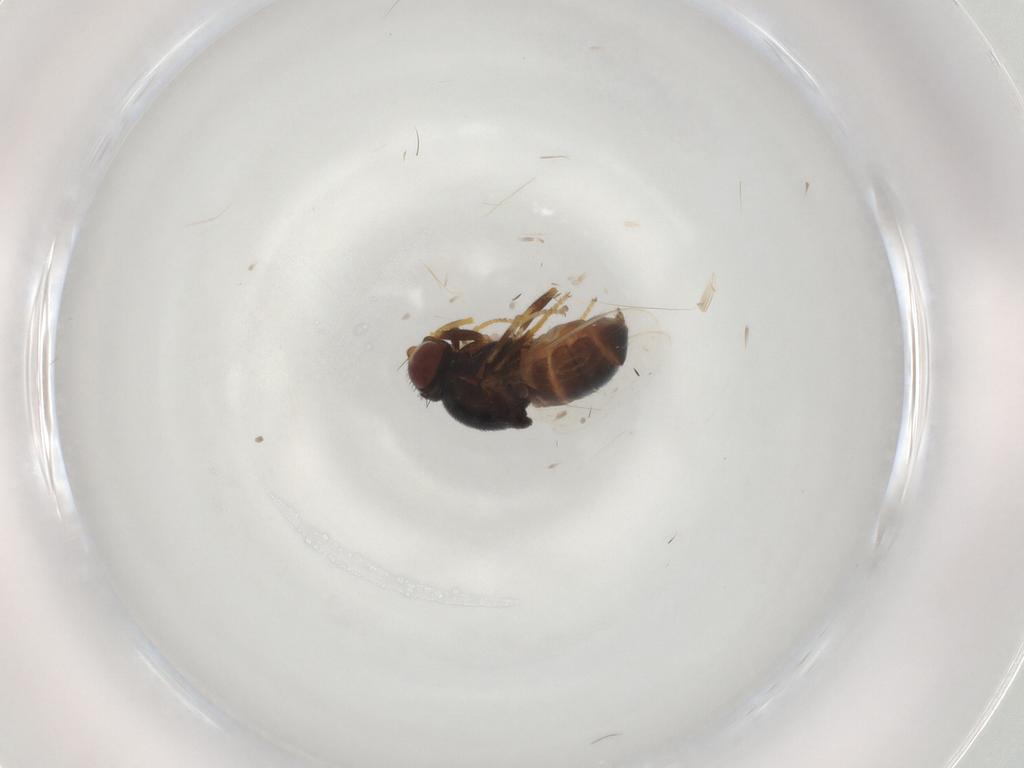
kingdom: Animalia
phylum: Arthropoda
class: Insecta
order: Diptera
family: Chloropidae
